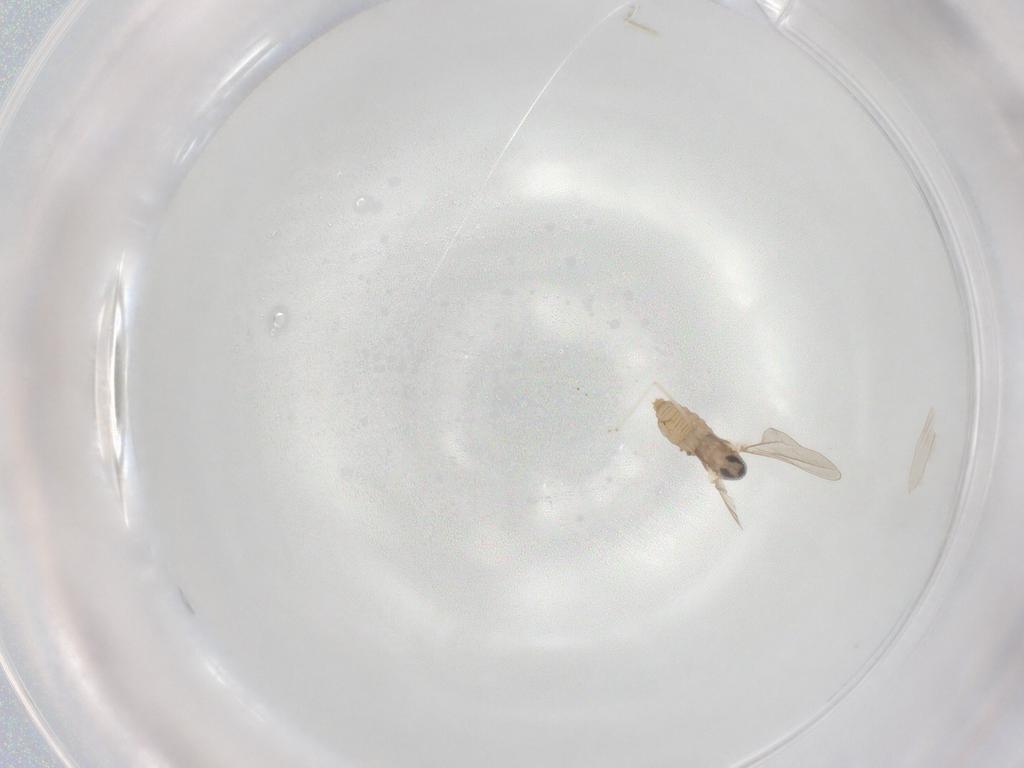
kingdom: Animalia
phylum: Arthropoda
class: Insecta
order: Diptera
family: Cecidomyiidae
